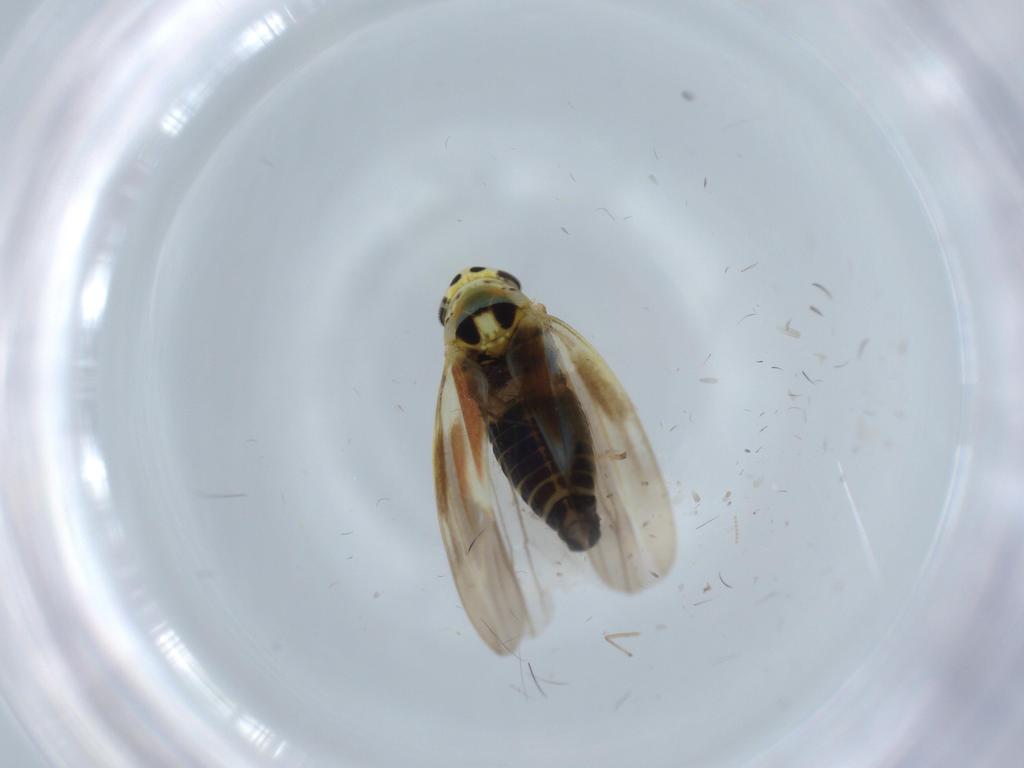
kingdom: Animalia
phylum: Arthropoda
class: Insecta
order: Hemiptera
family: Cicadellidae
